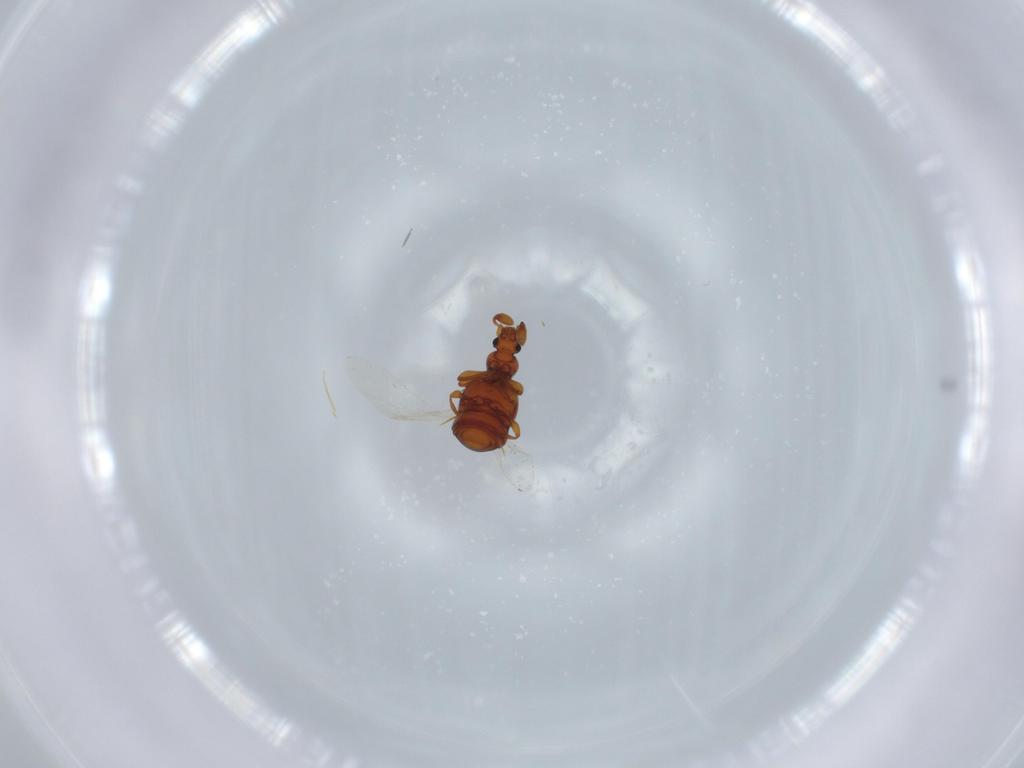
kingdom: Animalia
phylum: Arthropoda
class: Insecta
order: Coleoptera
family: Staphylinidae
